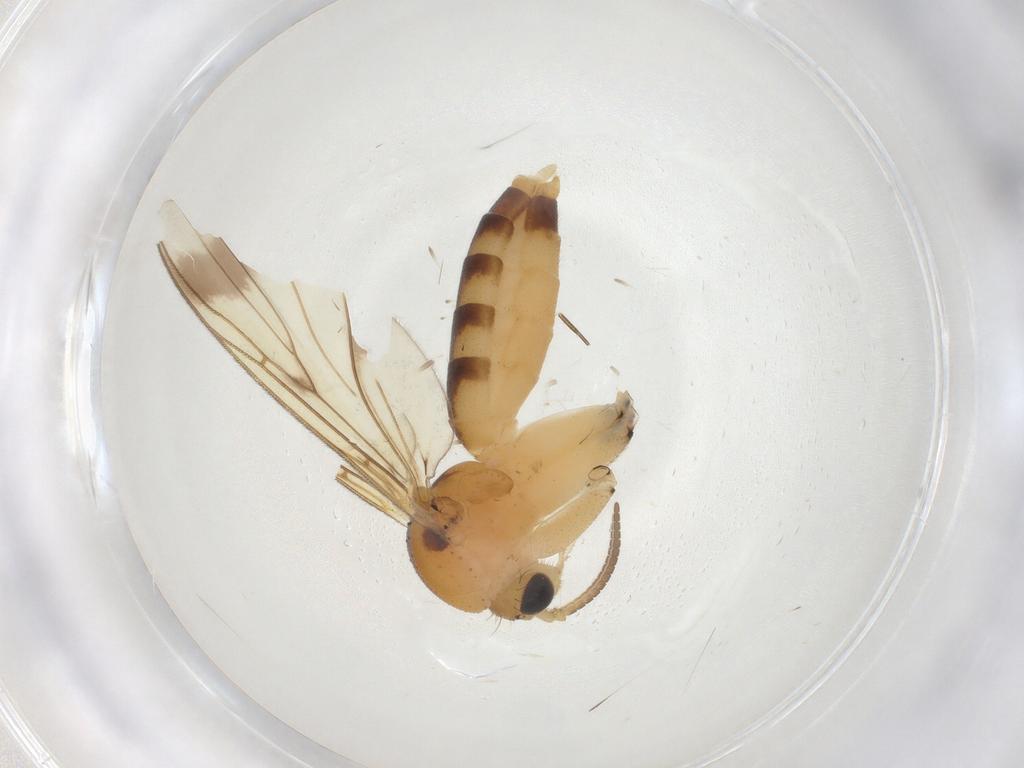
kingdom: Animalia
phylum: Arthropoda
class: Insecta
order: Diptera
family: Mycetophilidae
